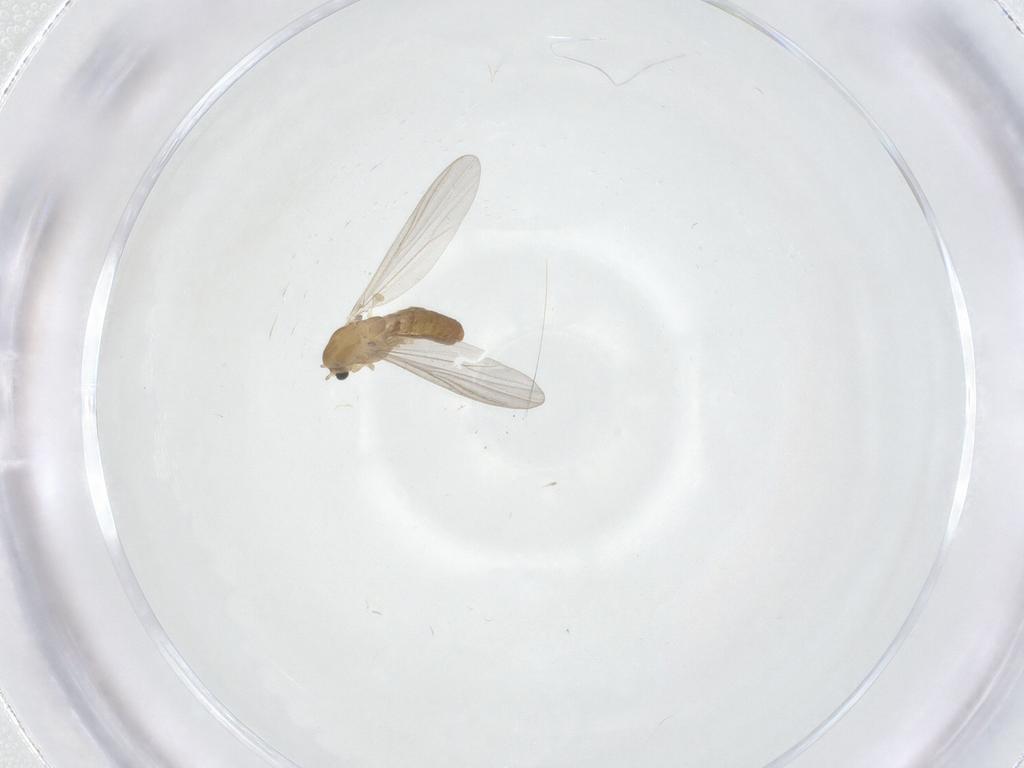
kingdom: Animalia
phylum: Arthropoda
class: Insecta
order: Diptera
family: Chironomidae
